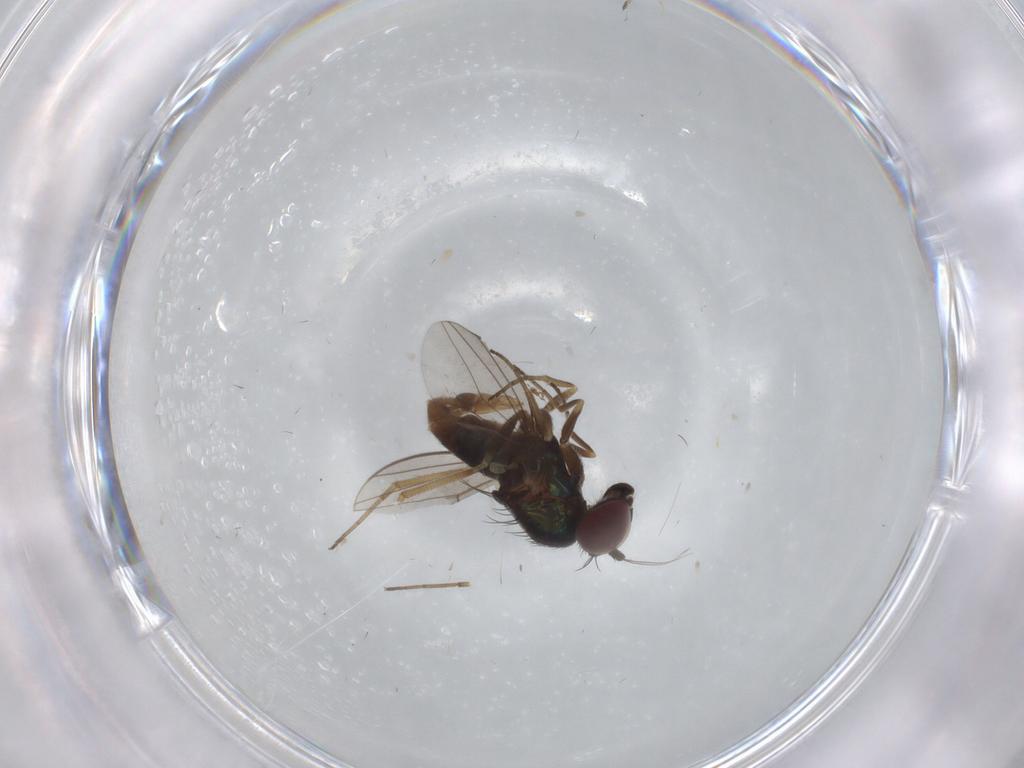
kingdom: Animalia
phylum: Arthropoda
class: Insecta
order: Diptera
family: Dolichopodidae
